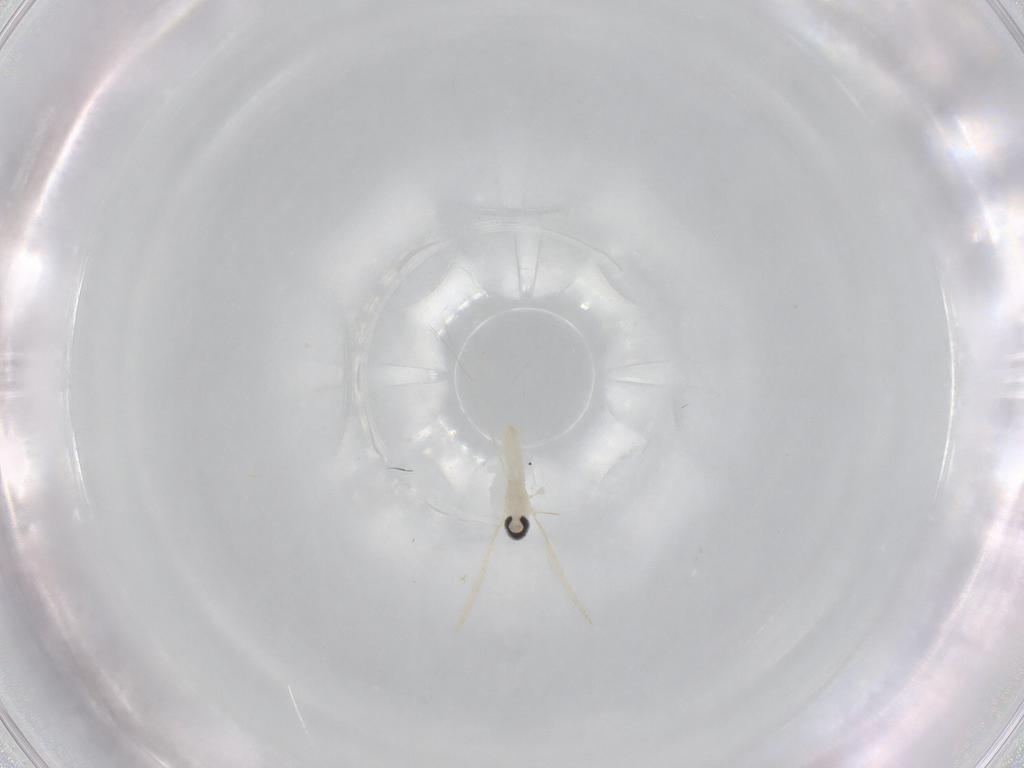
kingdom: Animalia
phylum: Arthropoda
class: Insecta
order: Diptera
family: Cecidomyiidae
